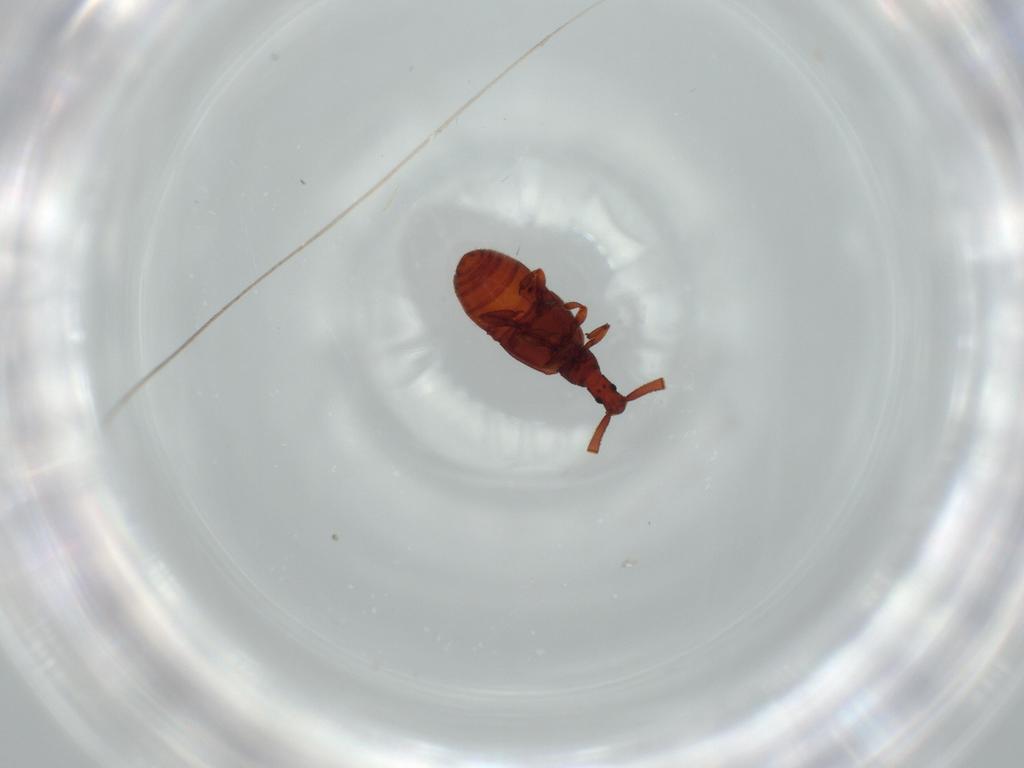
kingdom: Animalia
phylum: Arthropoda
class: Insecta
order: Coleoptera
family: Staphylinidae
